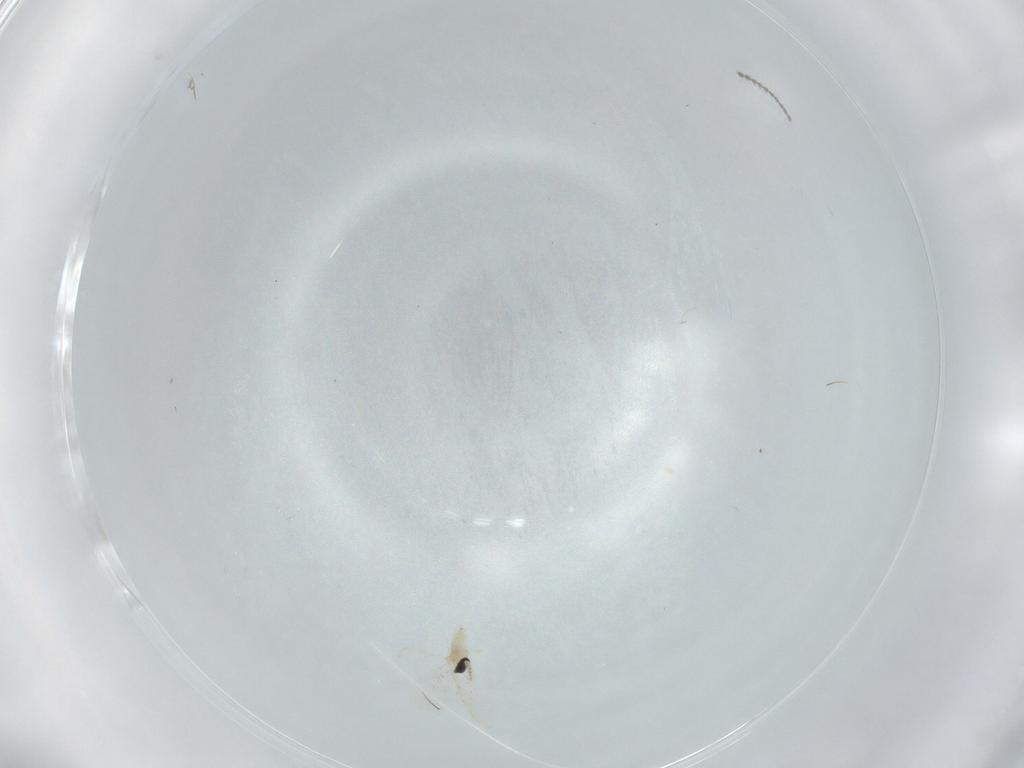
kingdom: Animalia
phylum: Arthropoda
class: Insecta
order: Diptera
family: Cecidomyiidae
